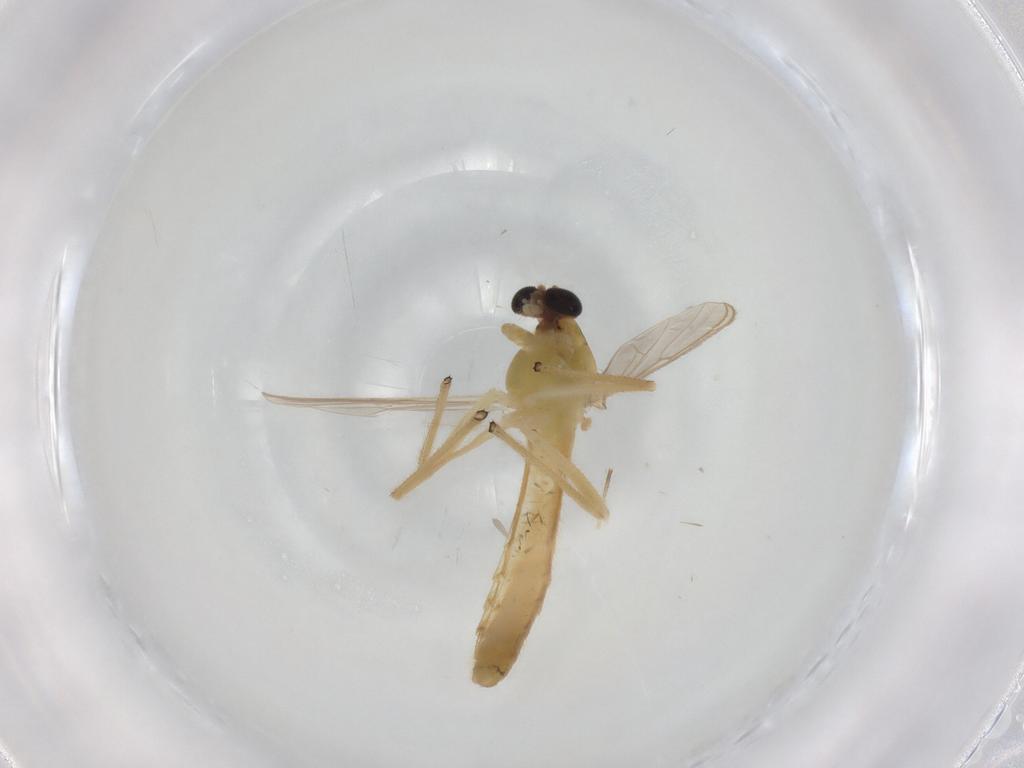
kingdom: Animalia
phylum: Arthropoda
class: Insecta
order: Diptera
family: Chironomidae
